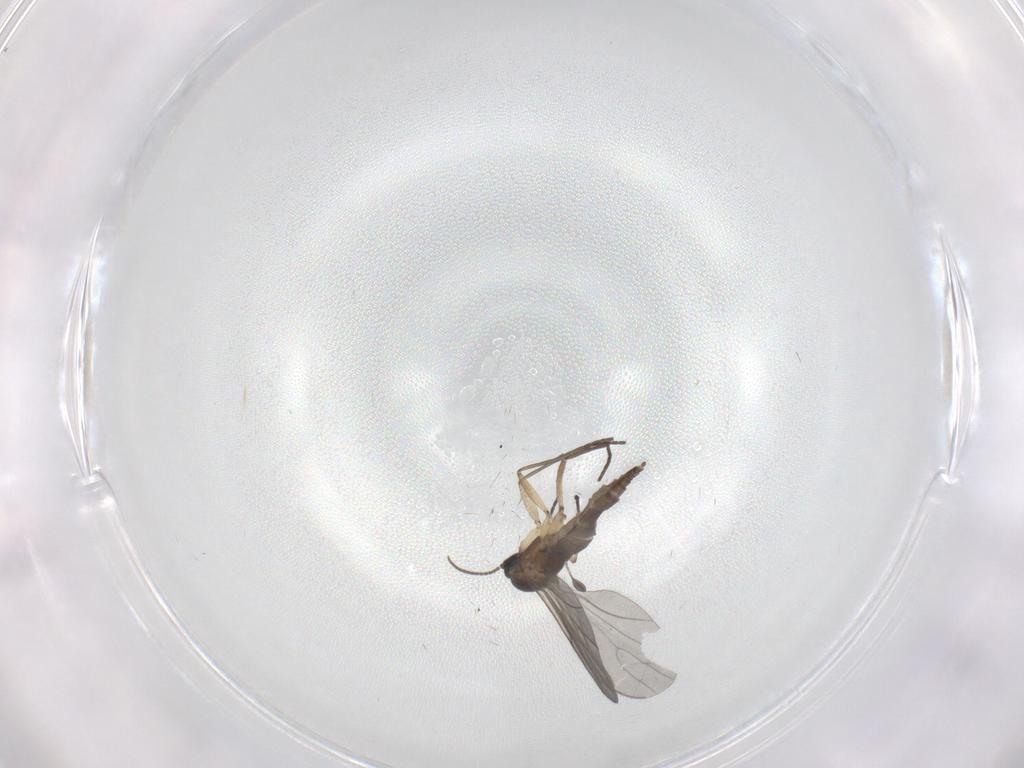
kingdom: Animalia
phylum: Arthropoda
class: Insecta
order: Diptera
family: Sciaridae
